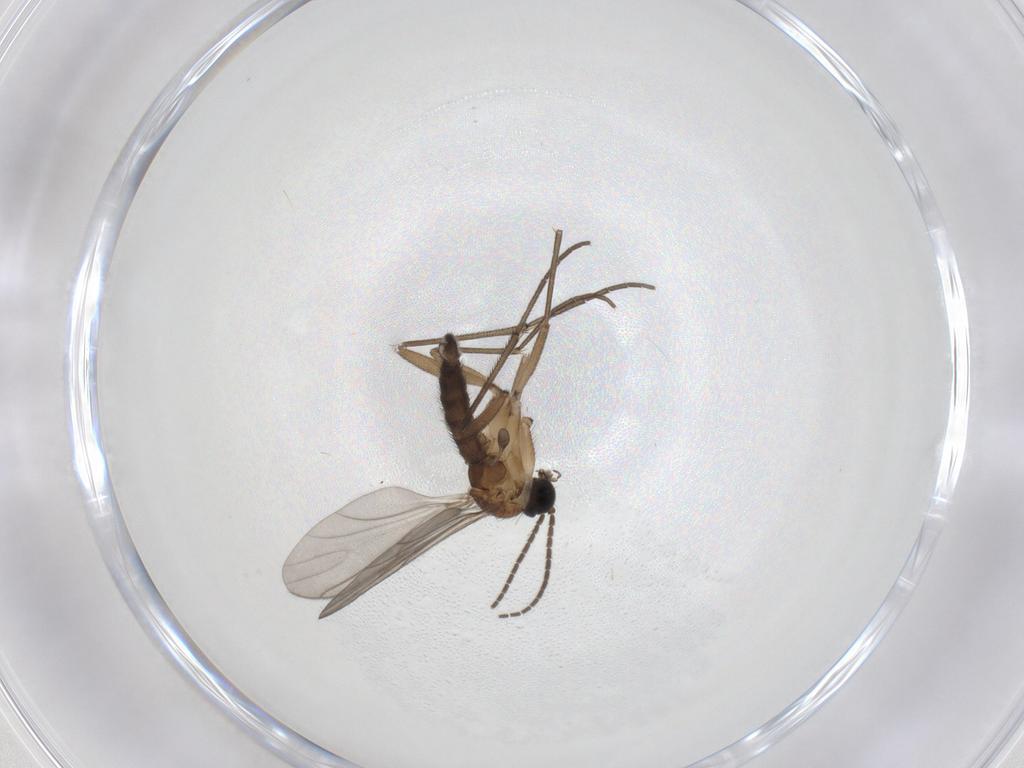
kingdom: Animalia
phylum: Arthropoda
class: Insecta
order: Diptera
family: Sciaridae
